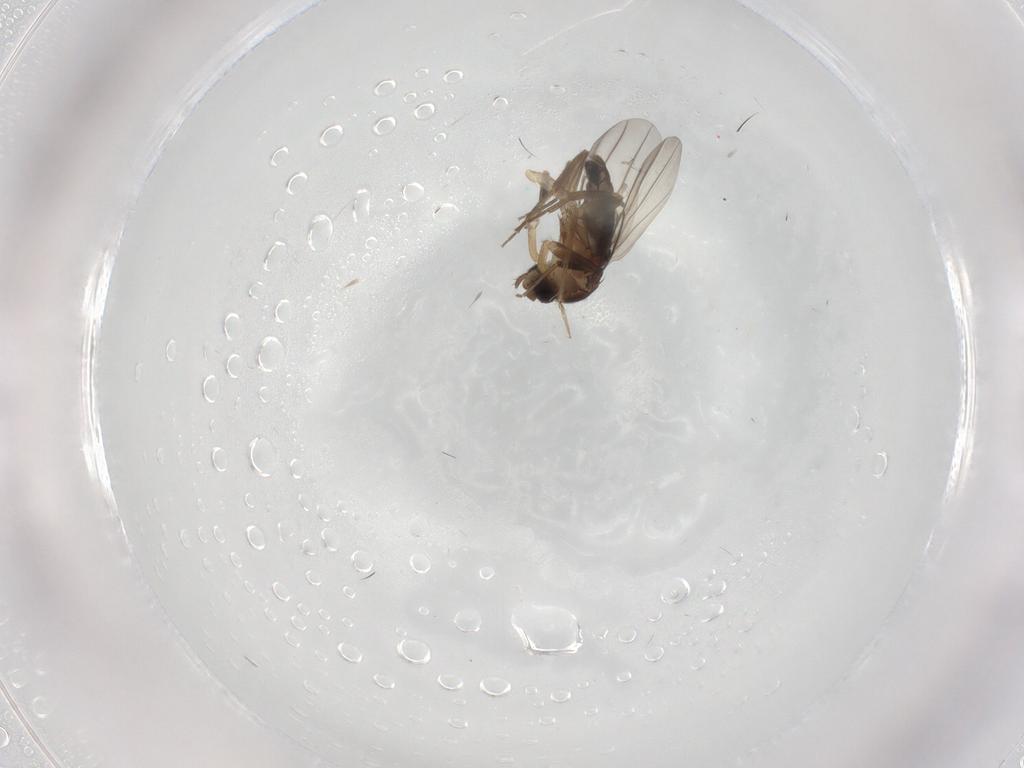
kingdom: Animalia
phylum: Arthropoda
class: Insecta
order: Diptera
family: Phoridae
